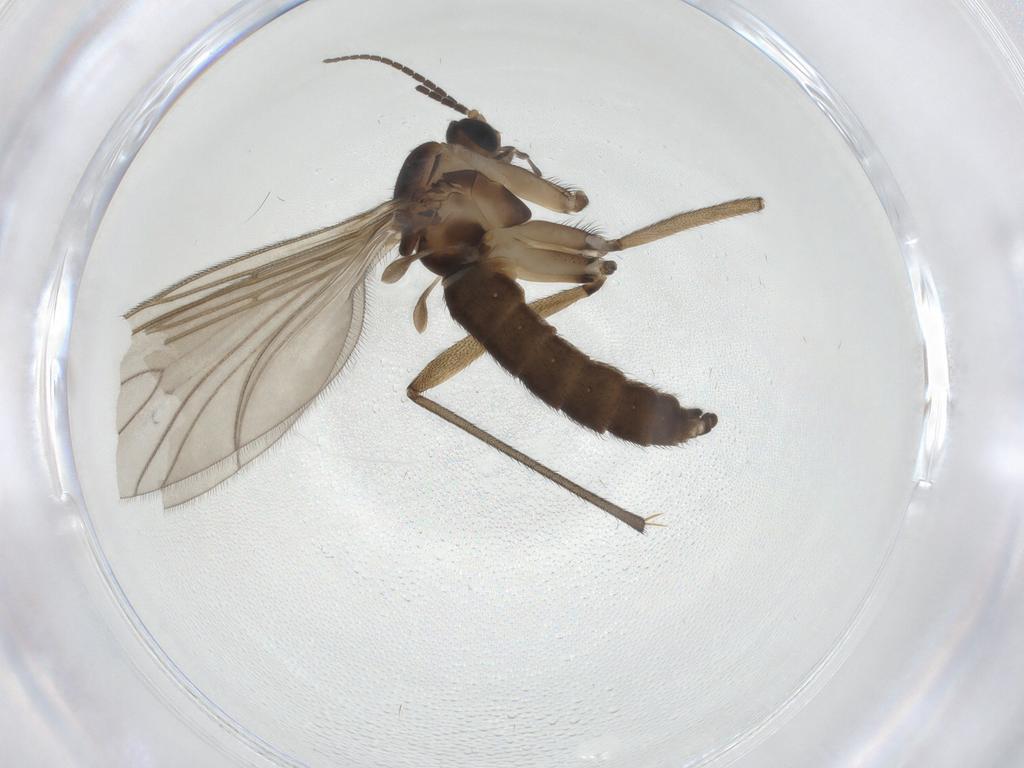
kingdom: Animalia
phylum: Arthropoda
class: Insecta
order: Diptera
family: Sciaridae
